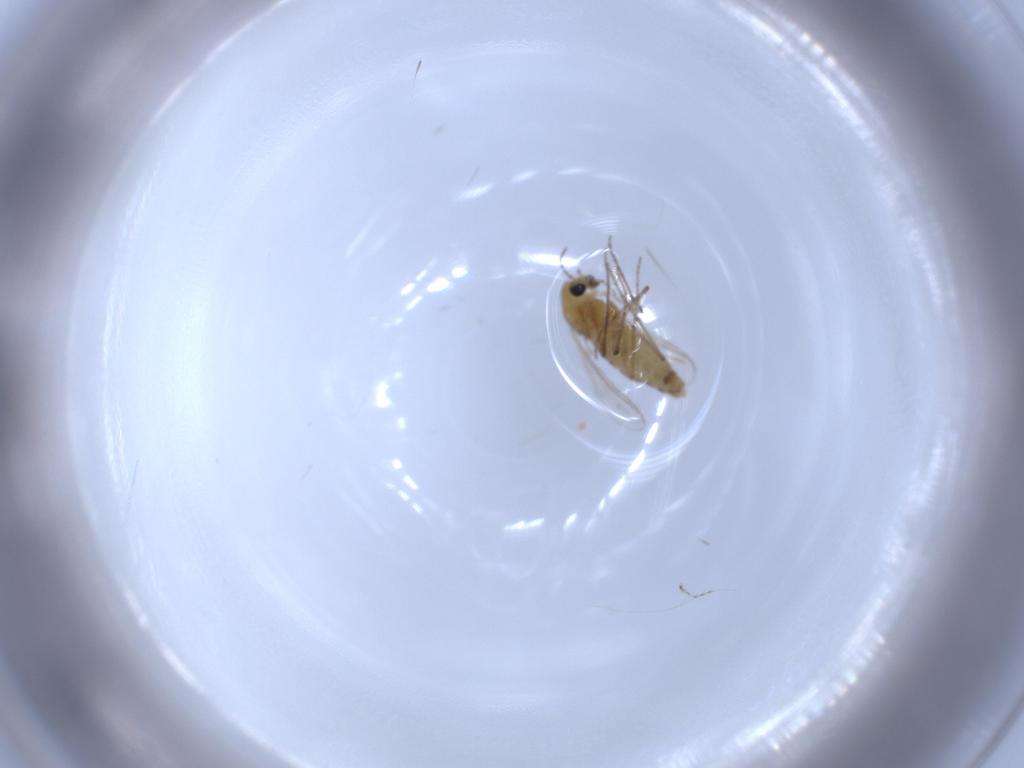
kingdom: Animalia
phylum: Arthropoda
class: Insecta
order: Diptera
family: Chironomidae
